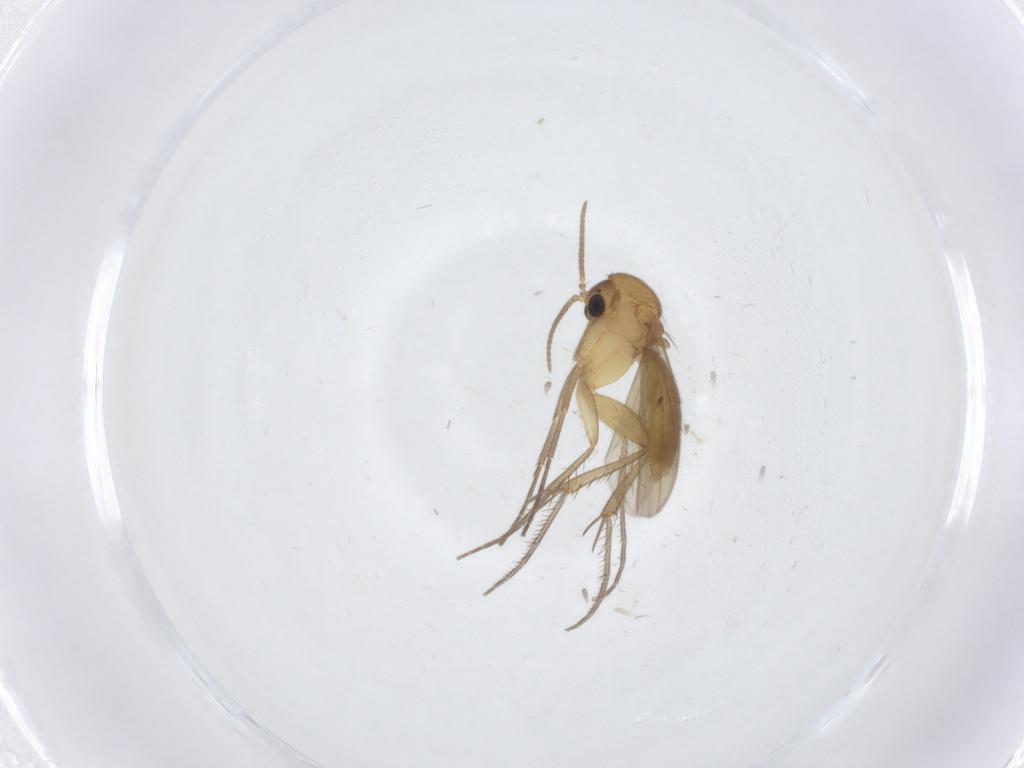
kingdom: Animalia
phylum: Arthropoda
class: Insecta
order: Diptera
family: Mycetophilidae
